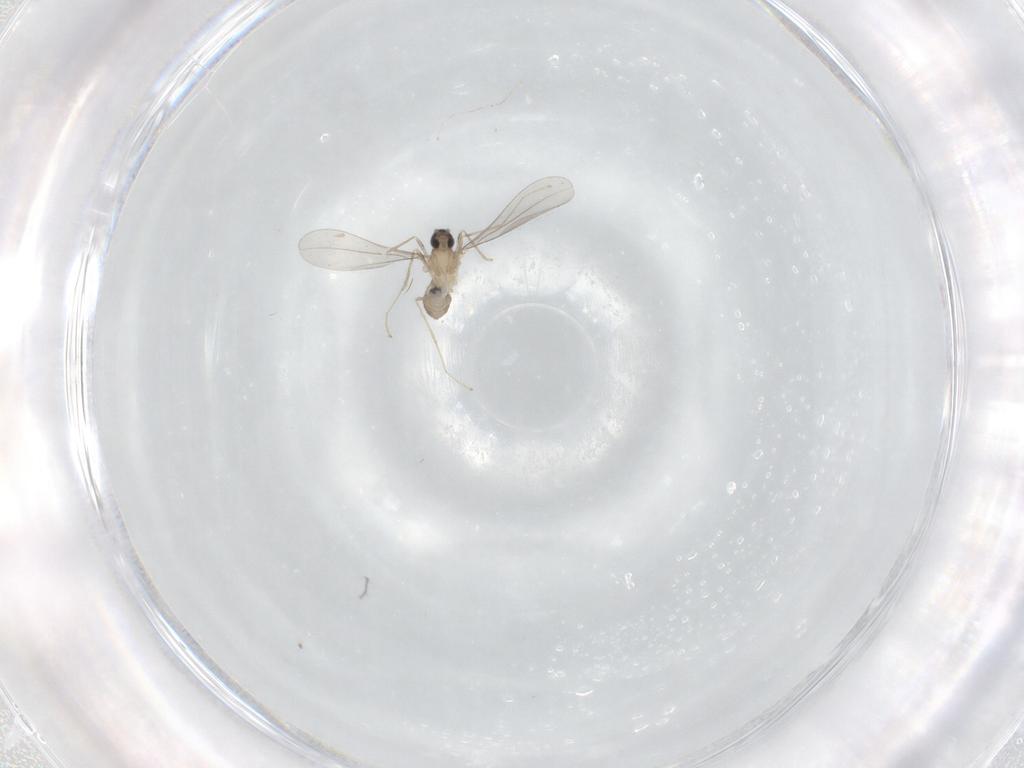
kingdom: Animalia
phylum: Arthropoda
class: Insecta
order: Diptera
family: Cecidomyiidae
